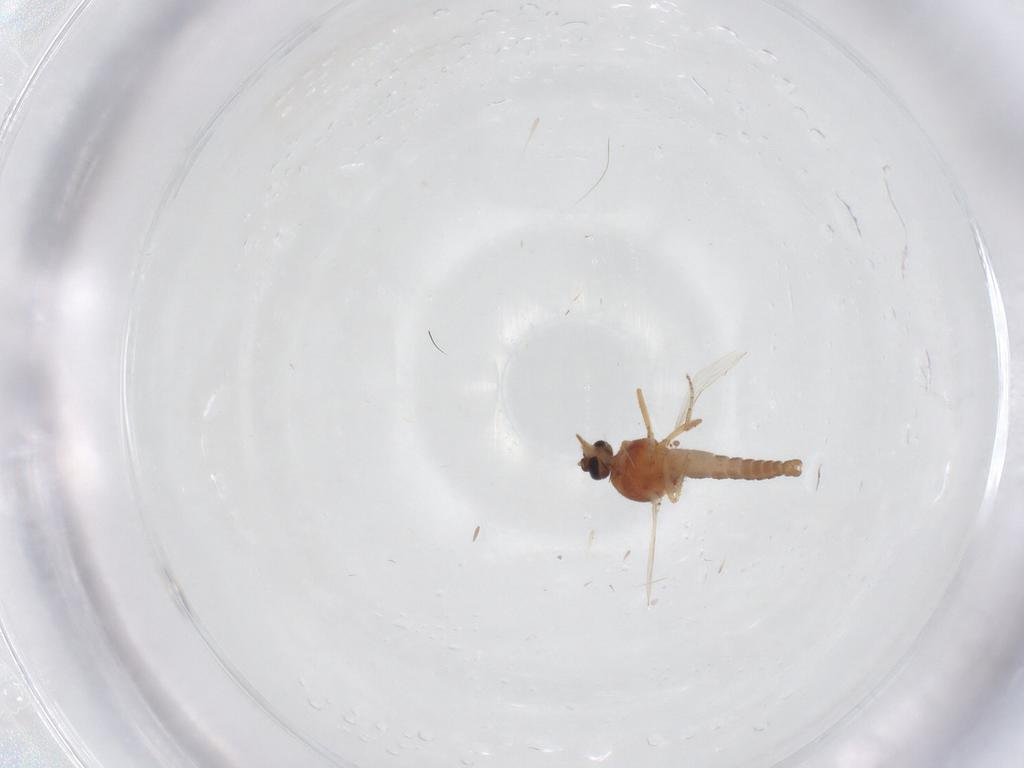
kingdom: Animalia
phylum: Arthropoda
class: Insecta
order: Diptera
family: Ceratopogonidae
